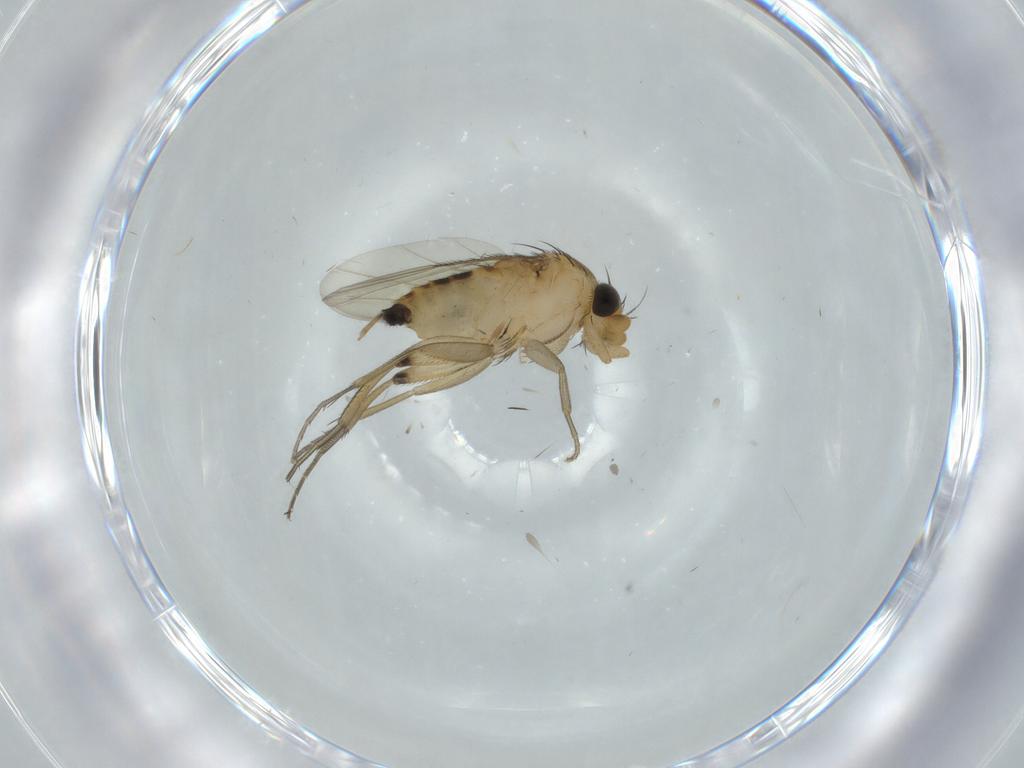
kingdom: Animalia
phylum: Arthropoda
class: Insecta
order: Diptera
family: Phoridae
